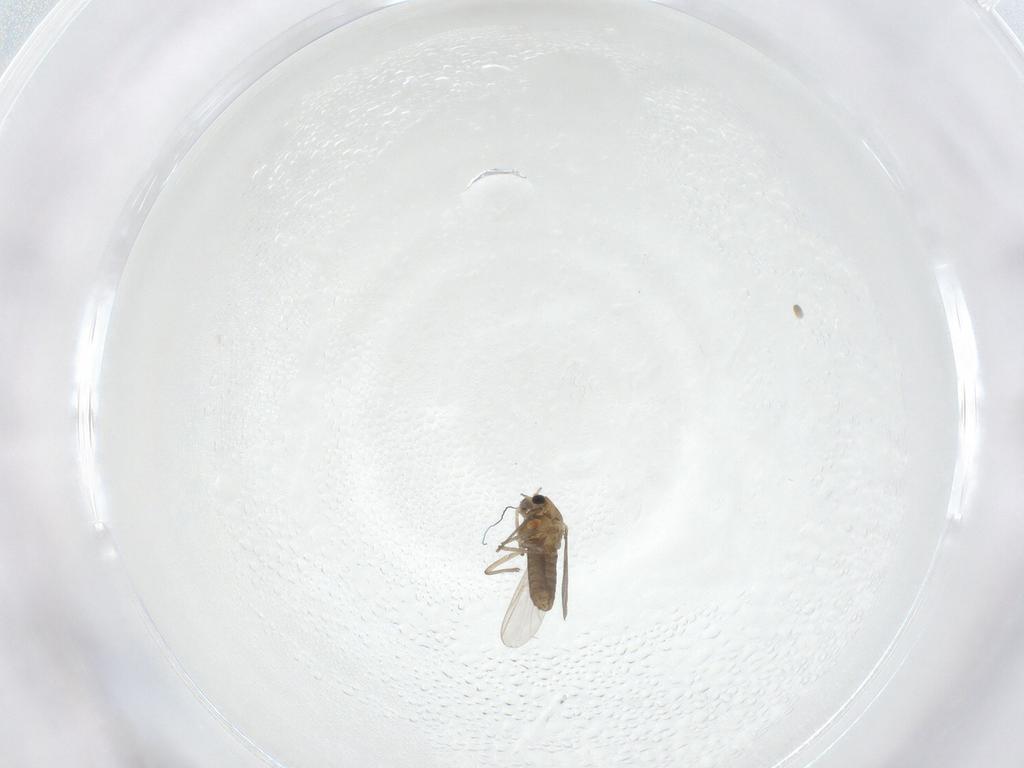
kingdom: Animalia
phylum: Arthropoda
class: Insecta
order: Diptera
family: Chironomidae
